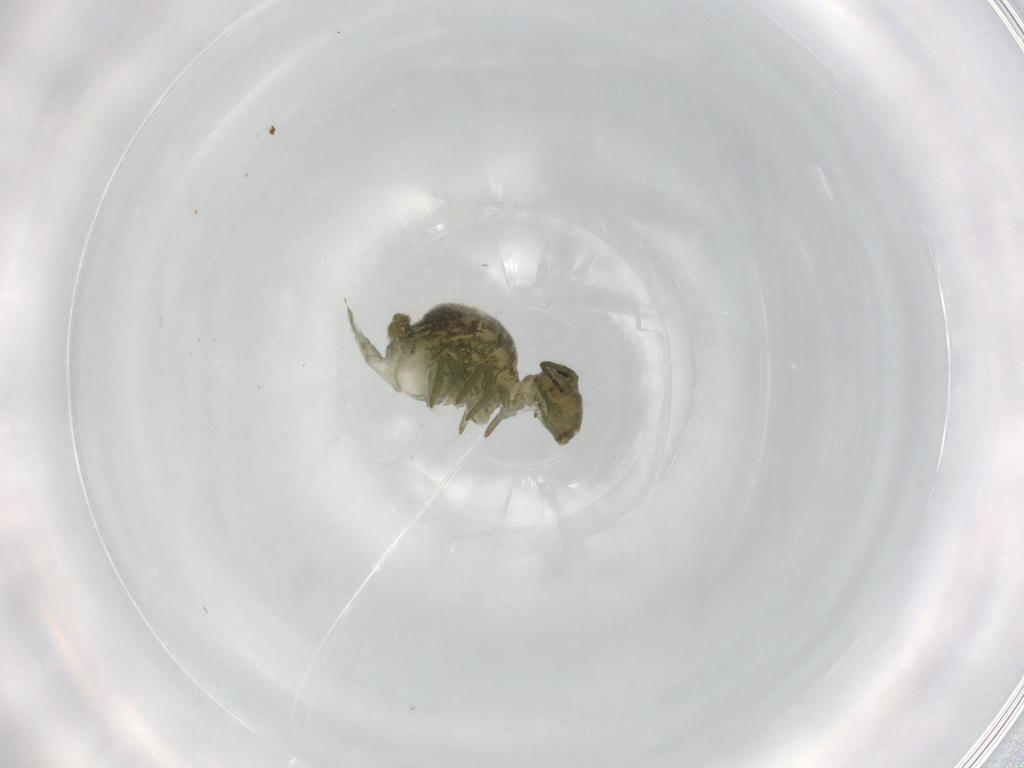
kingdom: Animalia
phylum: Arthropoda
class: Collembola
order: Symphypleona
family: Sminthuridae
